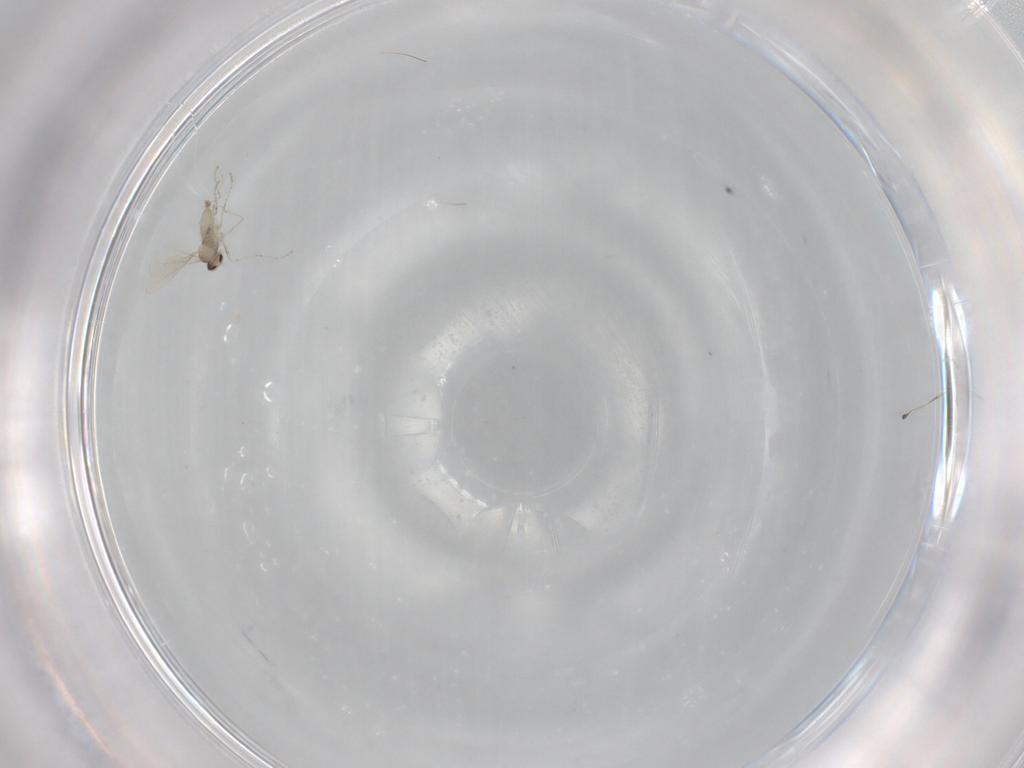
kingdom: Animalia
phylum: Arthropoda
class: Insecta
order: Diptera
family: Cecidomyiidae
